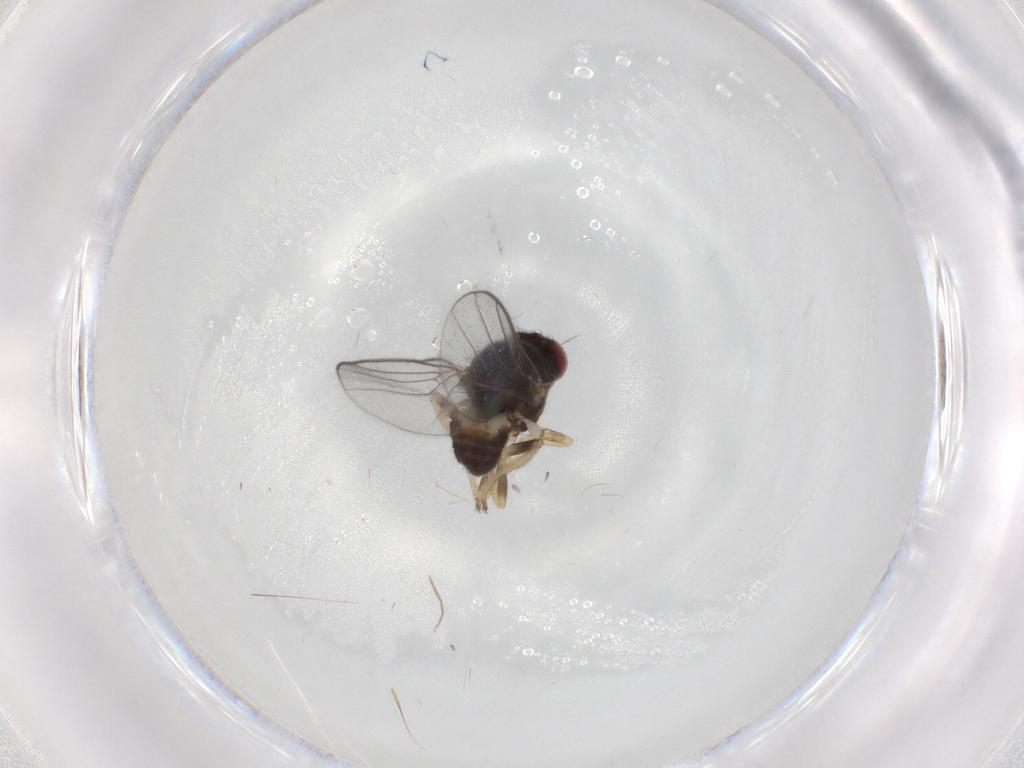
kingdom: Animalia
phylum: Arthropoda
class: Insecta
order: Diptera
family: Chloropidae
